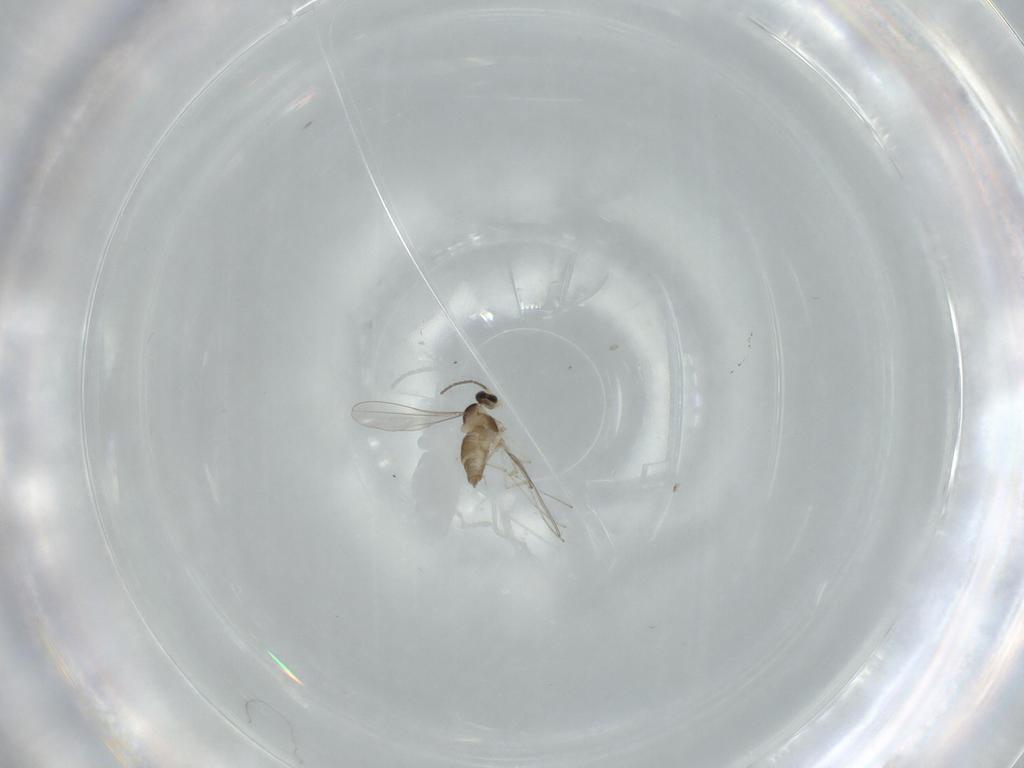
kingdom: Animalia
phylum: Arthropoda
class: Insecta
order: Diptera
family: Cecidomyiidae
